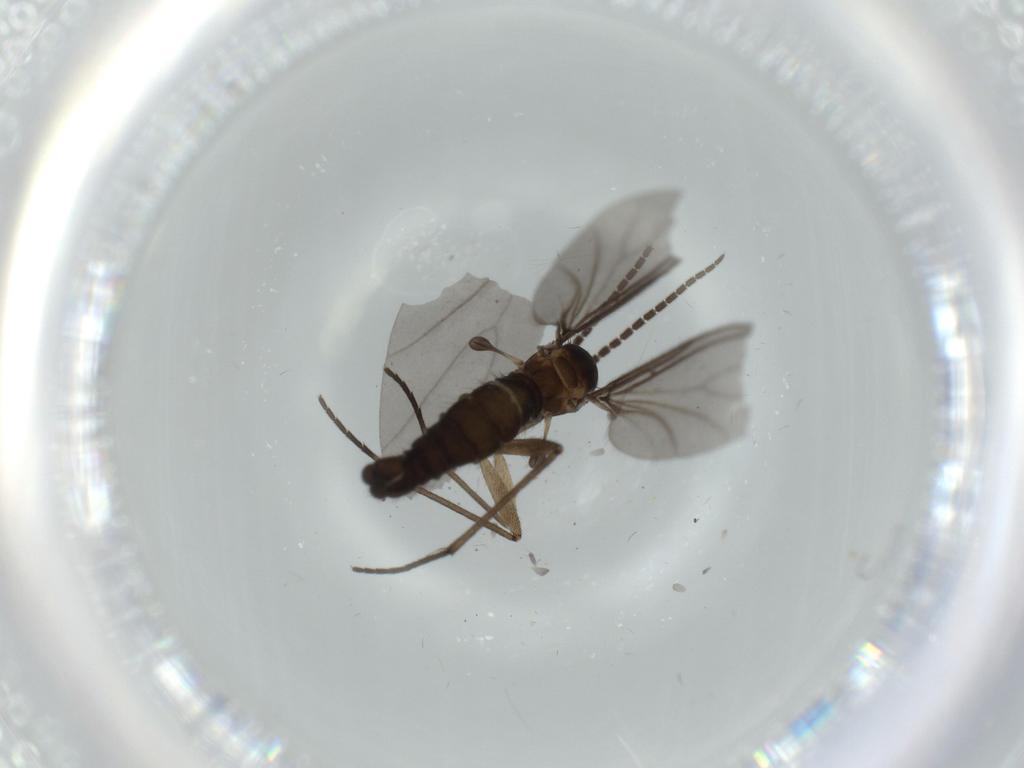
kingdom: Animalia
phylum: Arthropoda
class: Insecta
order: Diptera
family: Sciaridae
